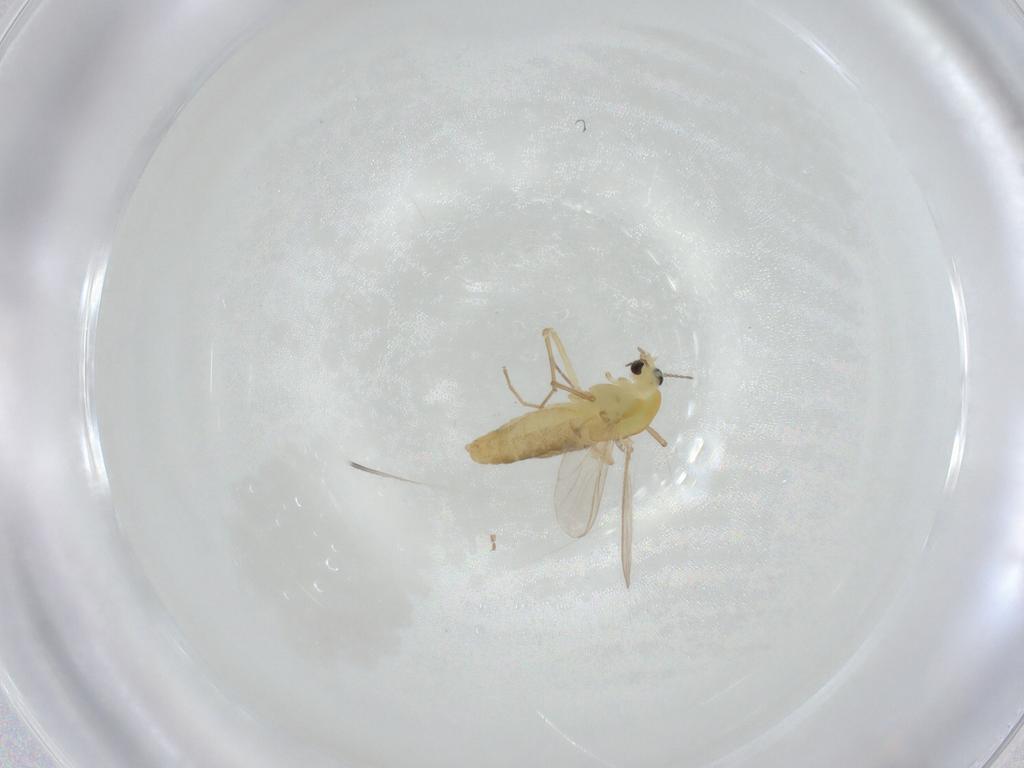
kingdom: Animalia
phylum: Arthropoda
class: Insecta
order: Diptera
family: Chironomidae
